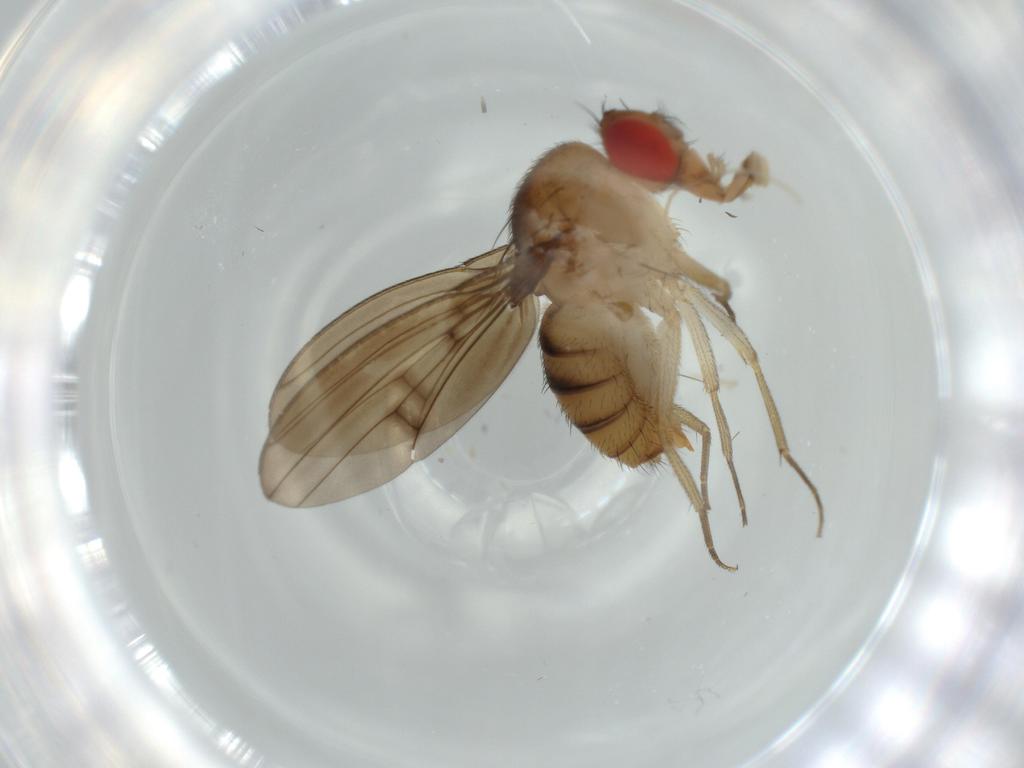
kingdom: Animalia
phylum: Arthropoda
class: Insecta
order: Diptera
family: Drosophilidae
